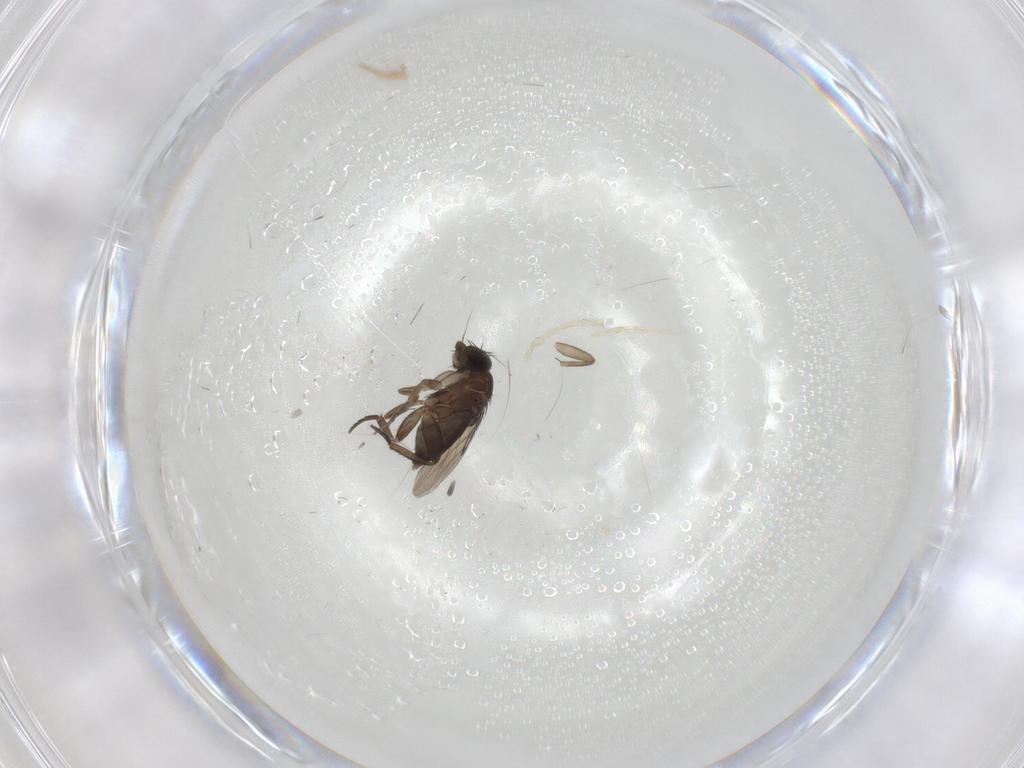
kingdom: Animalia
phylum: Arthropoda
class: Insecta
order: Diptera
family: Phoridae
